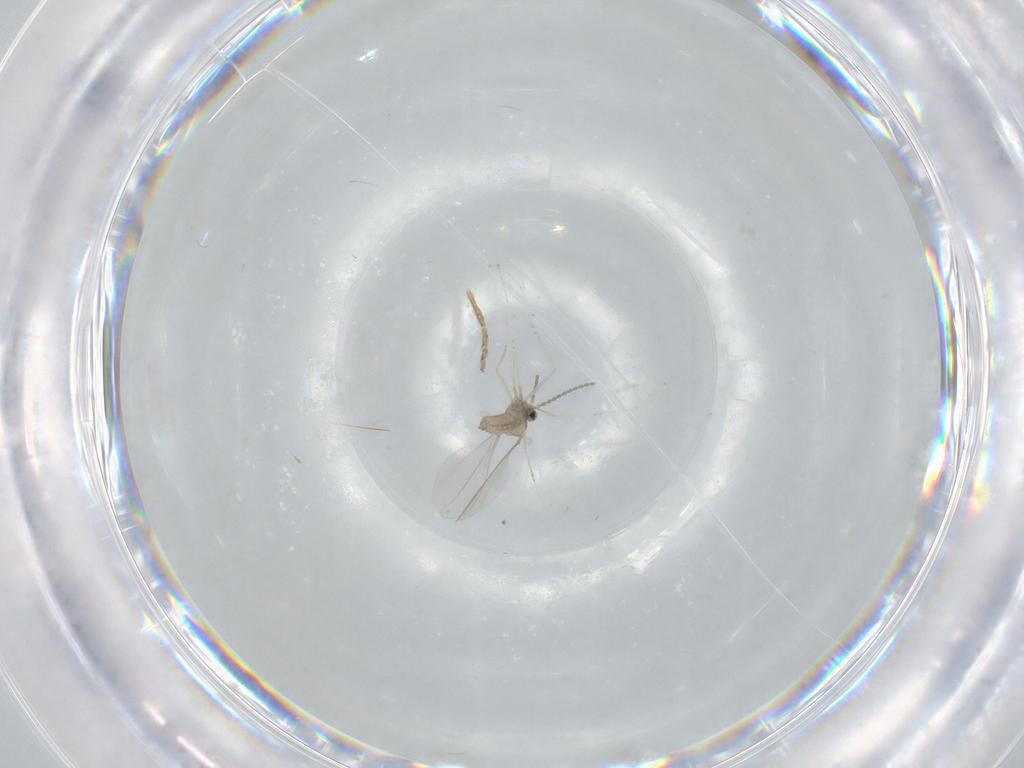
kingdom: Animalia
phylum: Arthropoda
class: Insecta
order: Diptera
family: Ceratopogonidae
